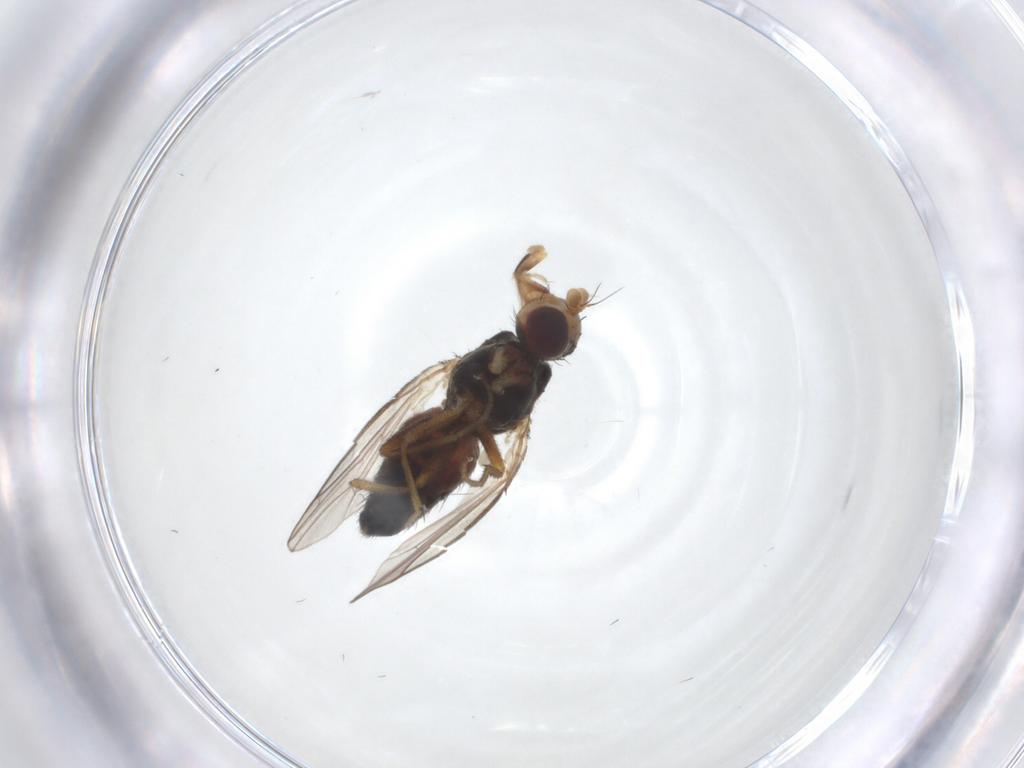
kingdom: Animalia
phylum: Arthropoda
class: Insecta
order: Diptera
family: Heleomyzidae
